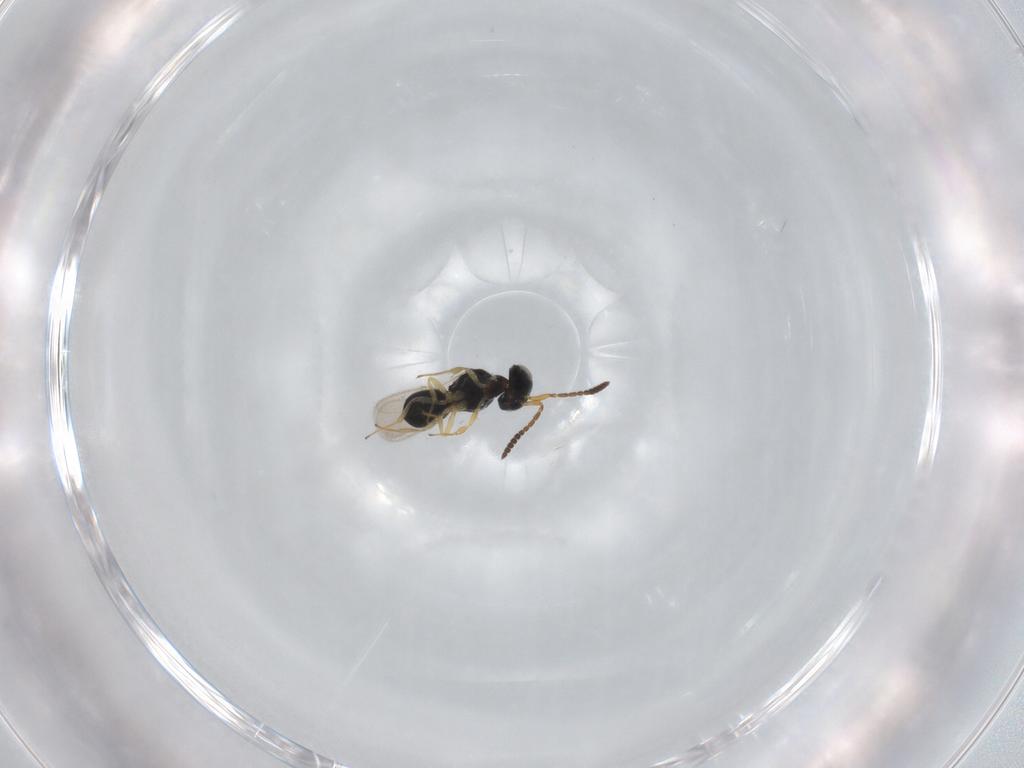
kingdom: Animalia
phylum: Arthropoda
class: Insecta
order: Hymenoptera
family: Scelionidae
